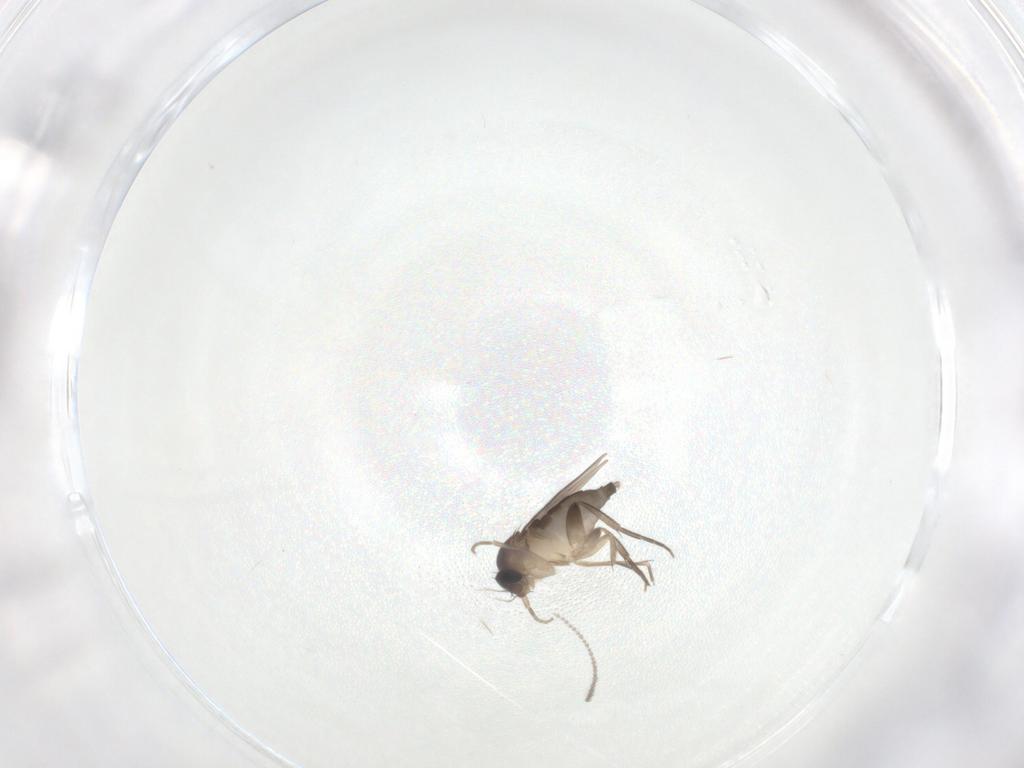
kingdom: Animalia
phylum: Arthropoda
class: Insecta
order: Diptera
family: Cecidomyiidae
